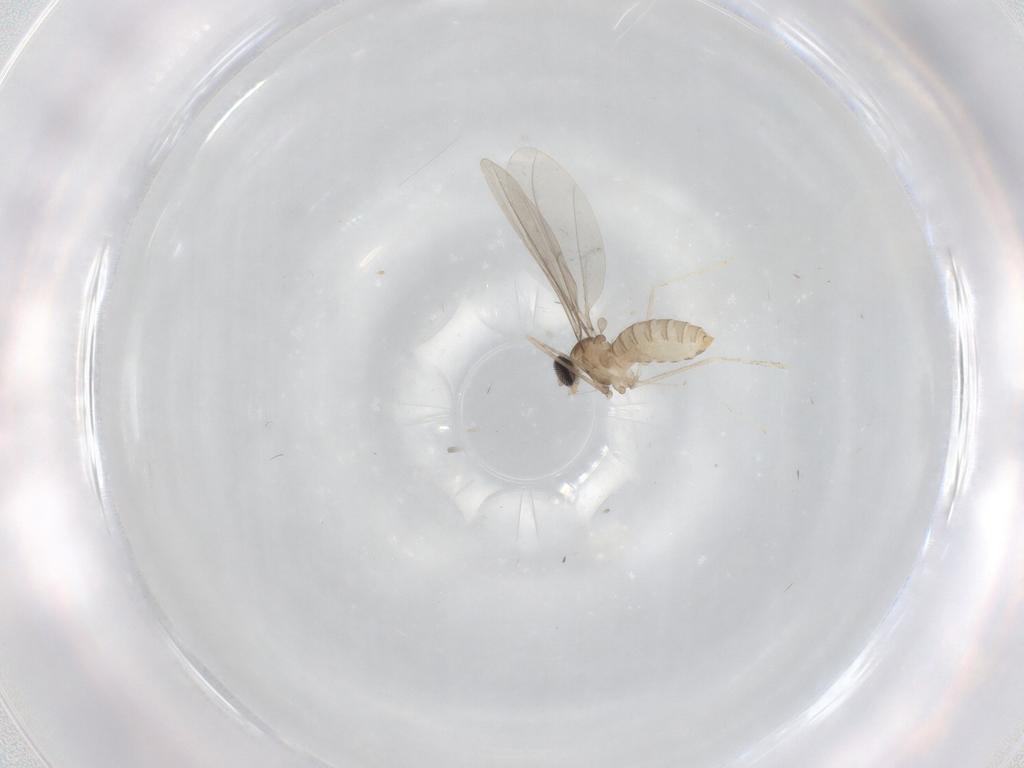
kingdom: Animalia
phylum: Arthropoda
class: Insecta
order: Diptera
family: Cecidomyiidae
